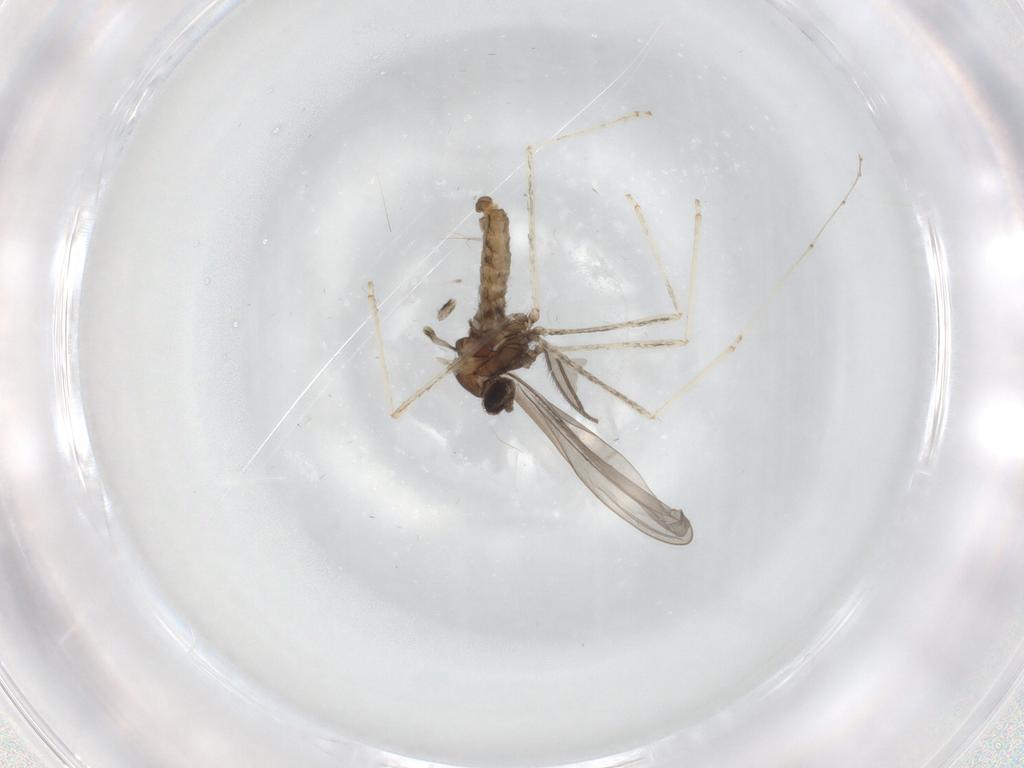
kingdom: Animalia
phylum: Arthropoda
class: Insecta
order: Diptera
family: Cecidomyiidae
